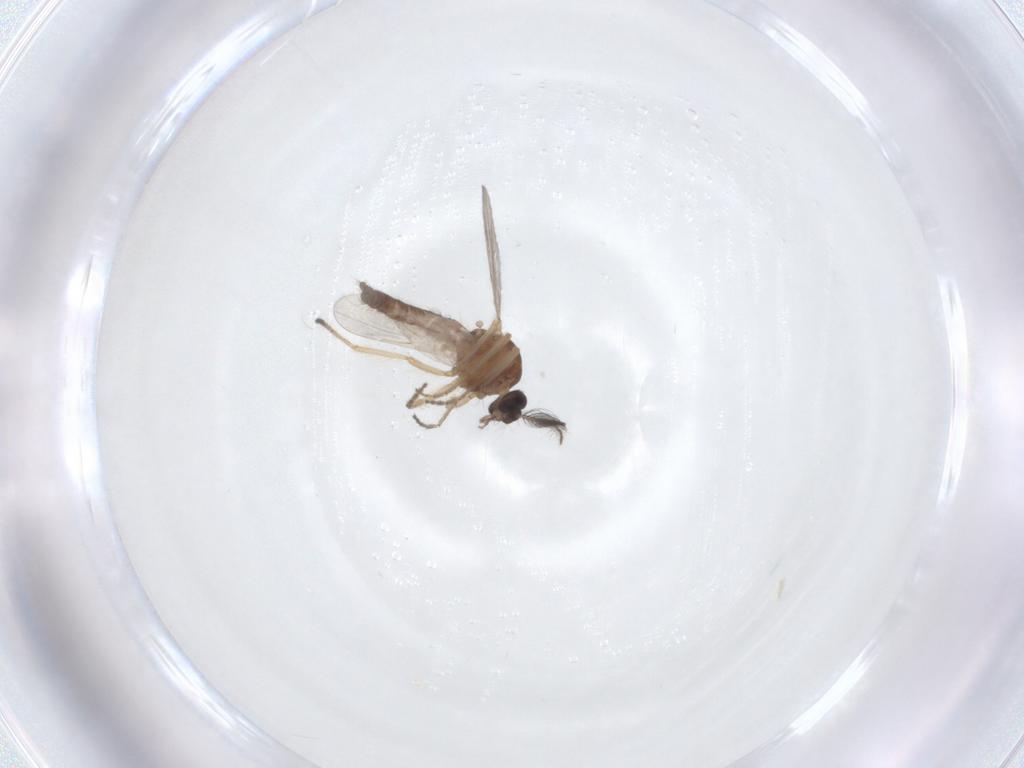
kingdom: Animalia
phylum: Arthropoda
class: Insecta
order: Diptera
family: Ceratopogonidae
